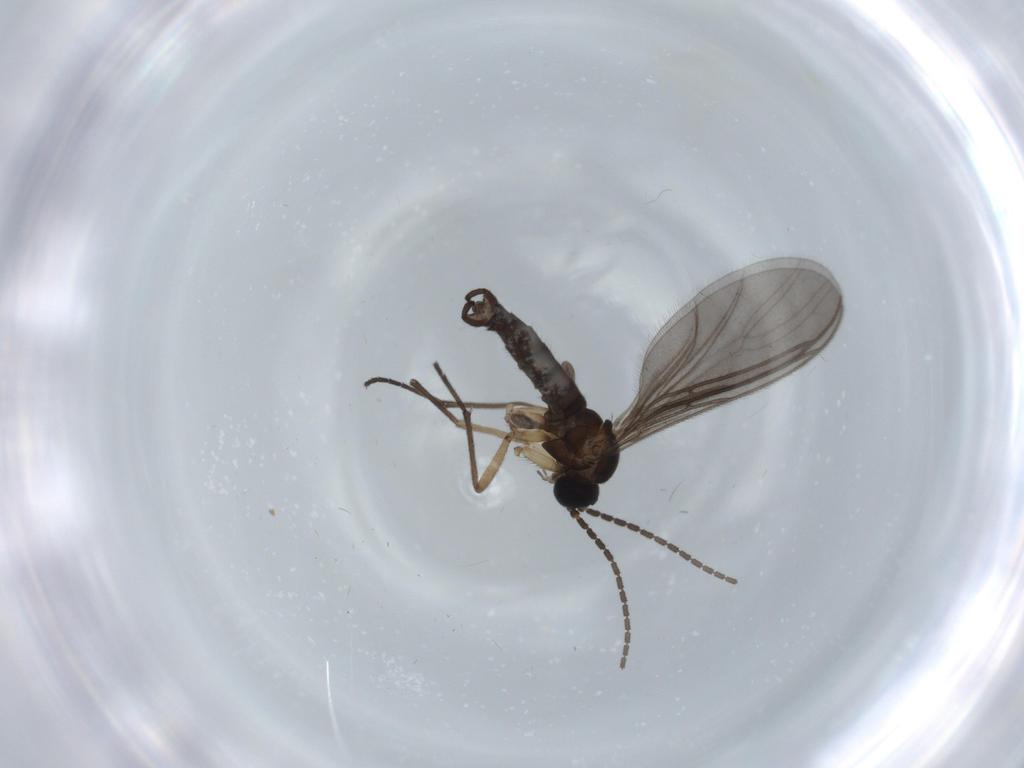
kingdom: Animalia
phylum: Arthropoda
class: Insecta
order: Diptera
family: Sciaridae
